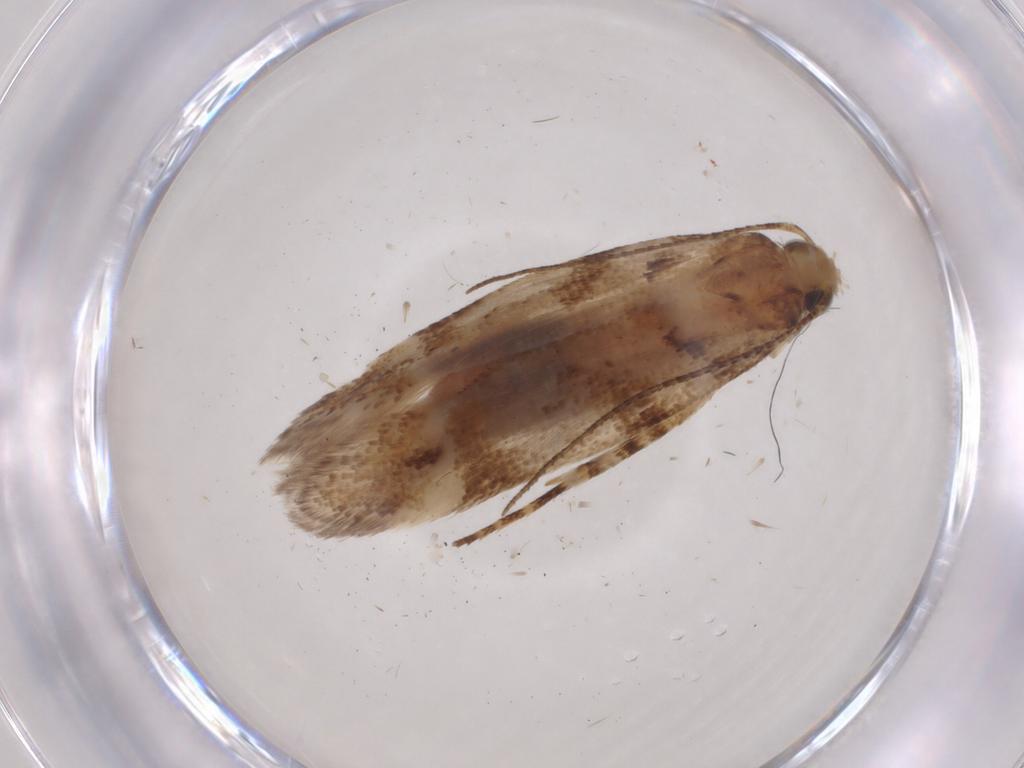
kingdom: Animalia
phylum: Arthropoda
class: Insecta
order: Lepidoptera
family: Gelechiidae
